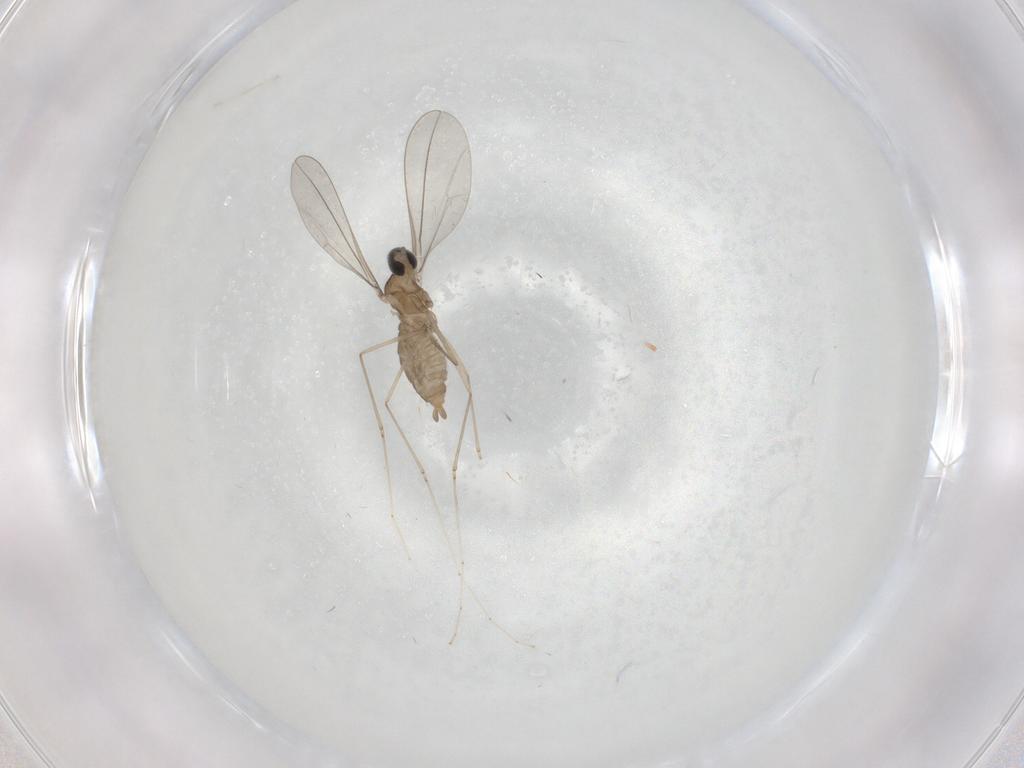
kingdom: Animalia
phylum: Arthropoda
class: Insecta
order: Diptera
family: Cecidomyiidae
